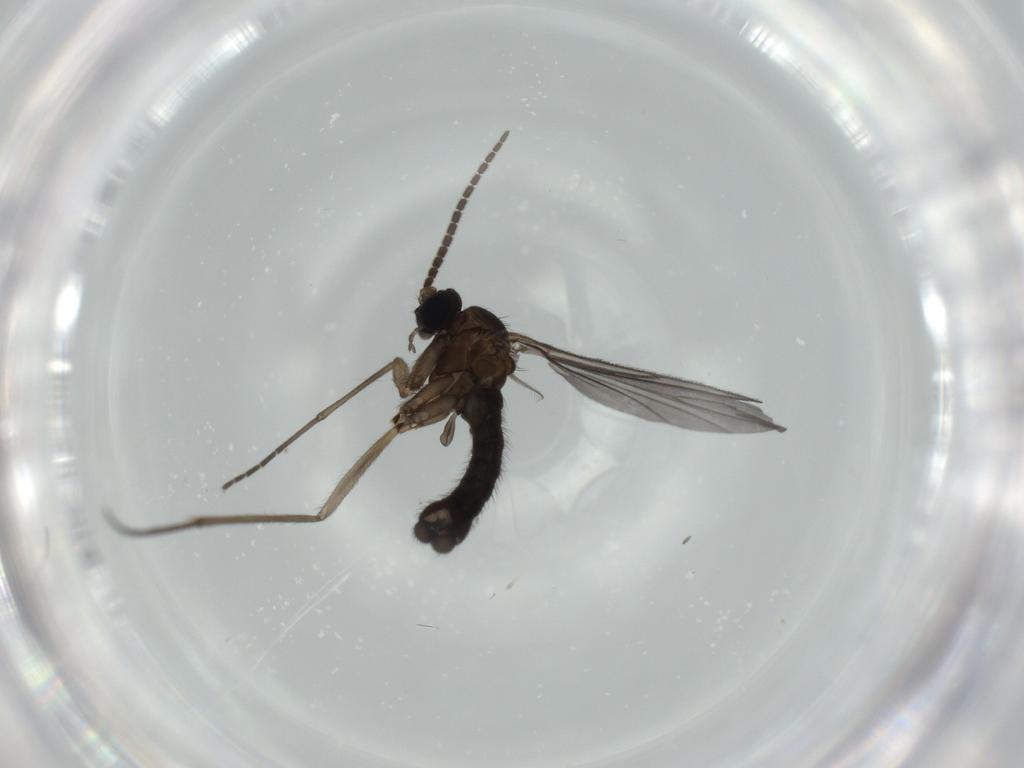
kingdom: Animalia
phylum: Arthropoda
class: Insecta
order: Diptera
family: Sciaridae
